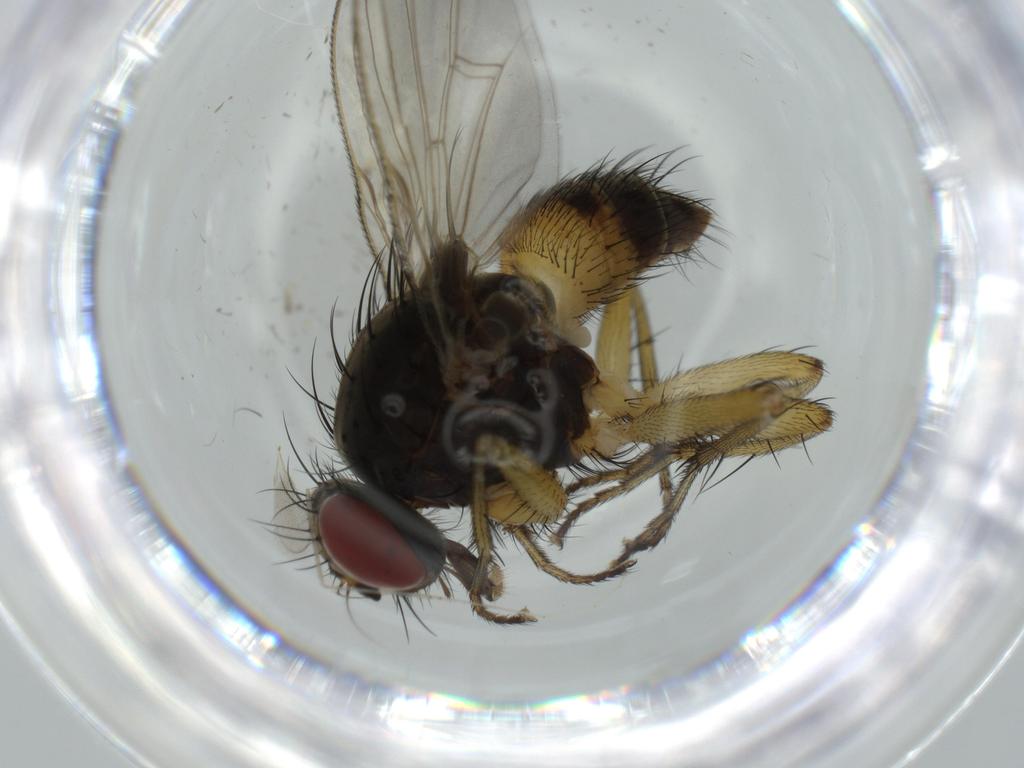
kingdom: Animalia
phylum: Arthropoda
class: Insecta
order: Diptera
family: Muscidae
